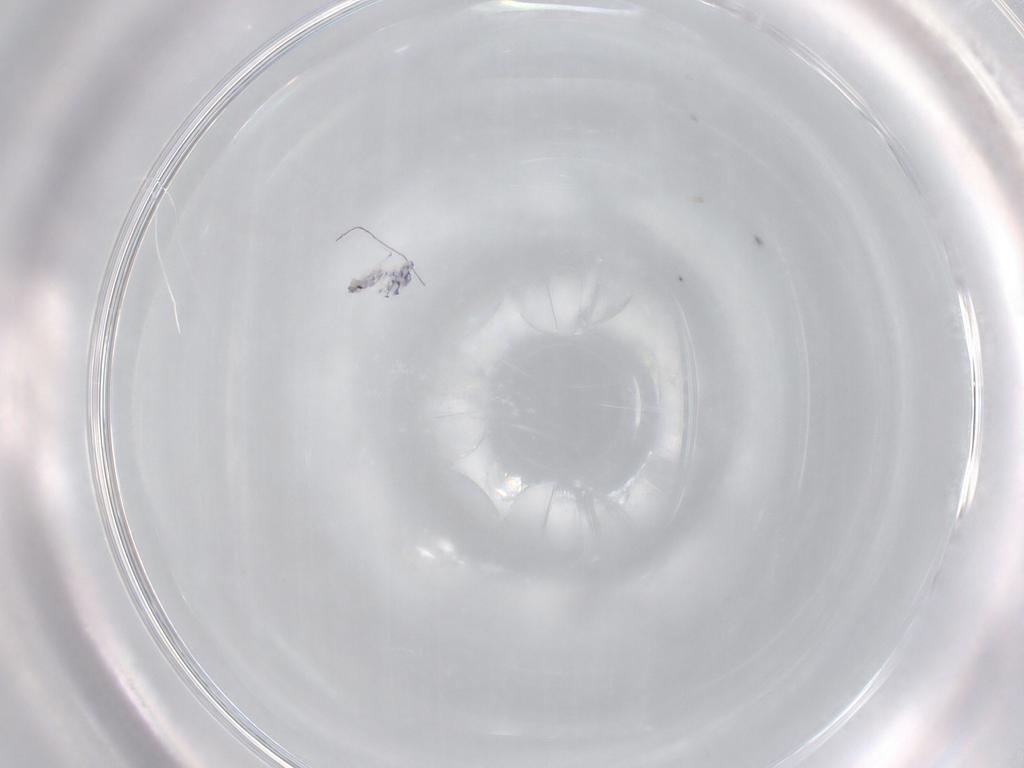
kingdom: Animalia
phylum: Arthropoda
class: Collembola
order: Entomobryomorpha
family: Entomobryidae
